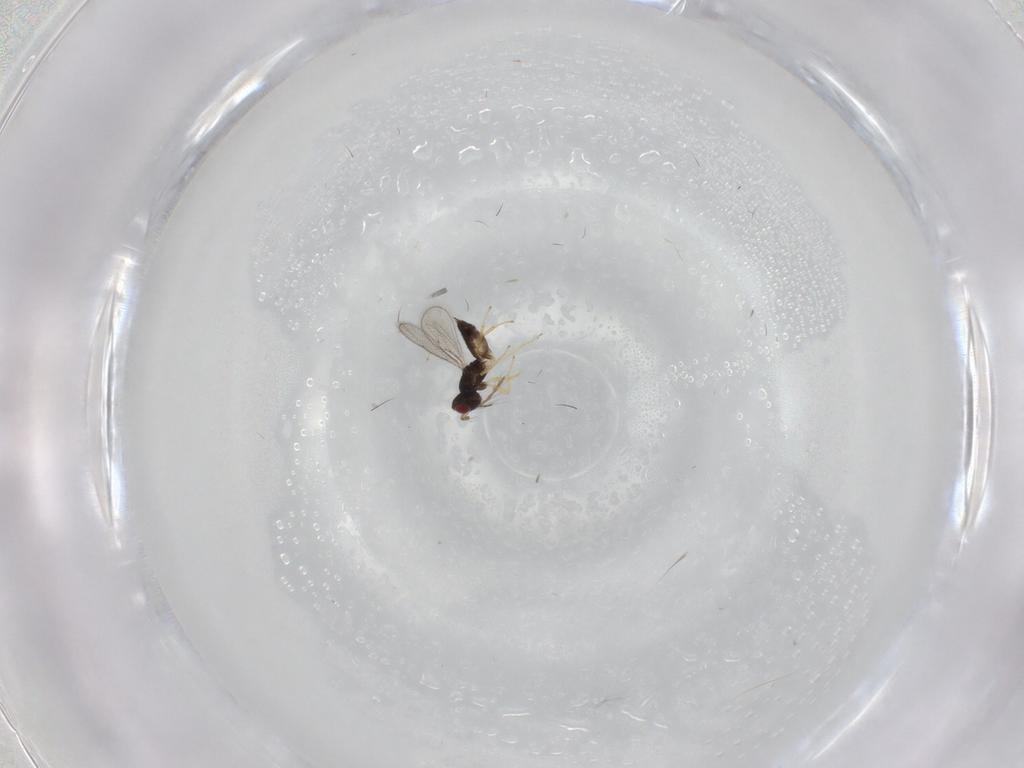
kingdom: Animalia
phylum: Arthropoda
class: Insecta
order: Hymenoptera
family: Eulophidae
